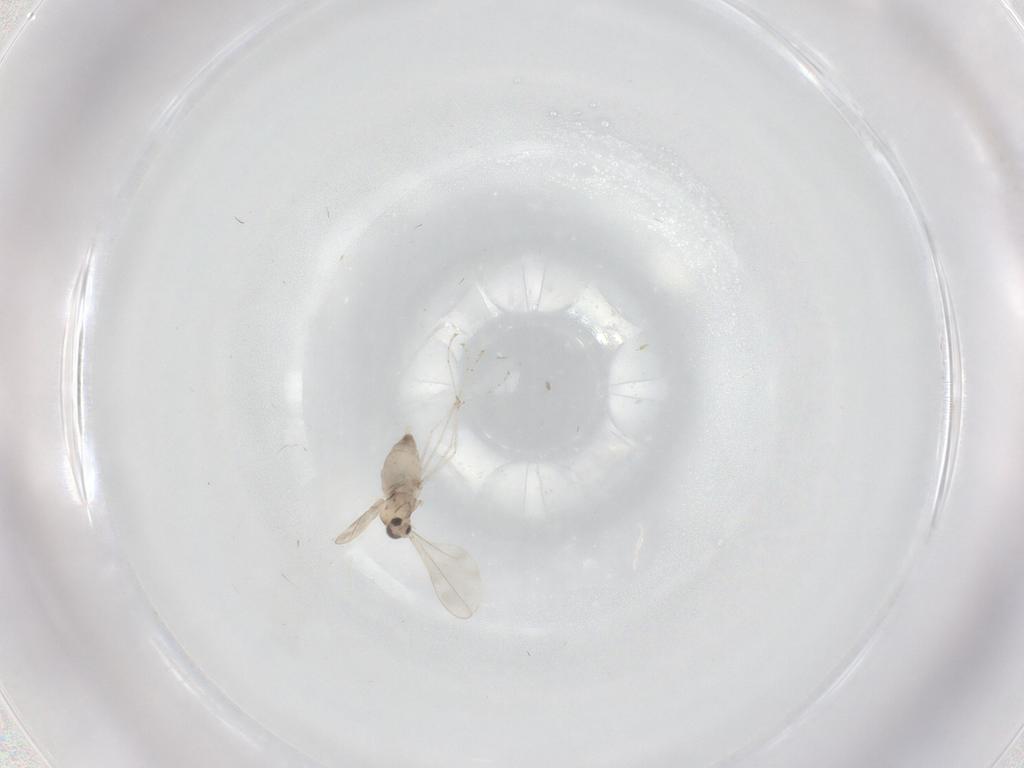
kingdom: Animalia
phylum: Arthropoda
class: Insecta
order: Diptera
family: Cecidomyiidae
